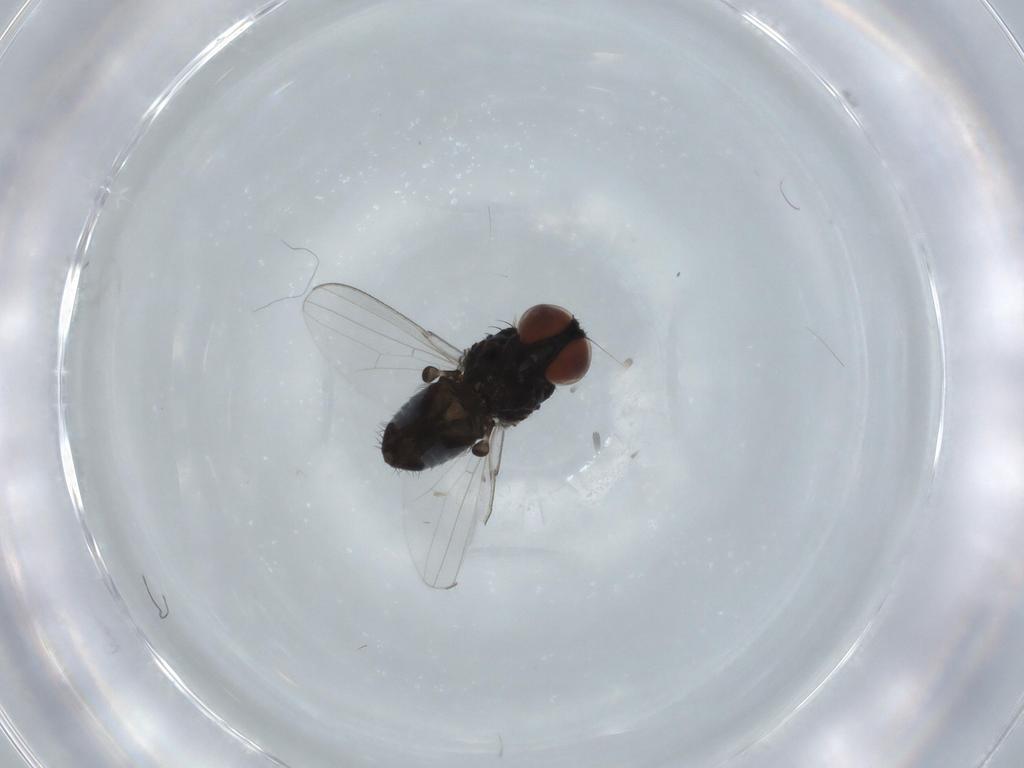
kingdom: Animalia
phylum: Arthropoda
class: Insecta
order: Diptera
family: Milichiidae
